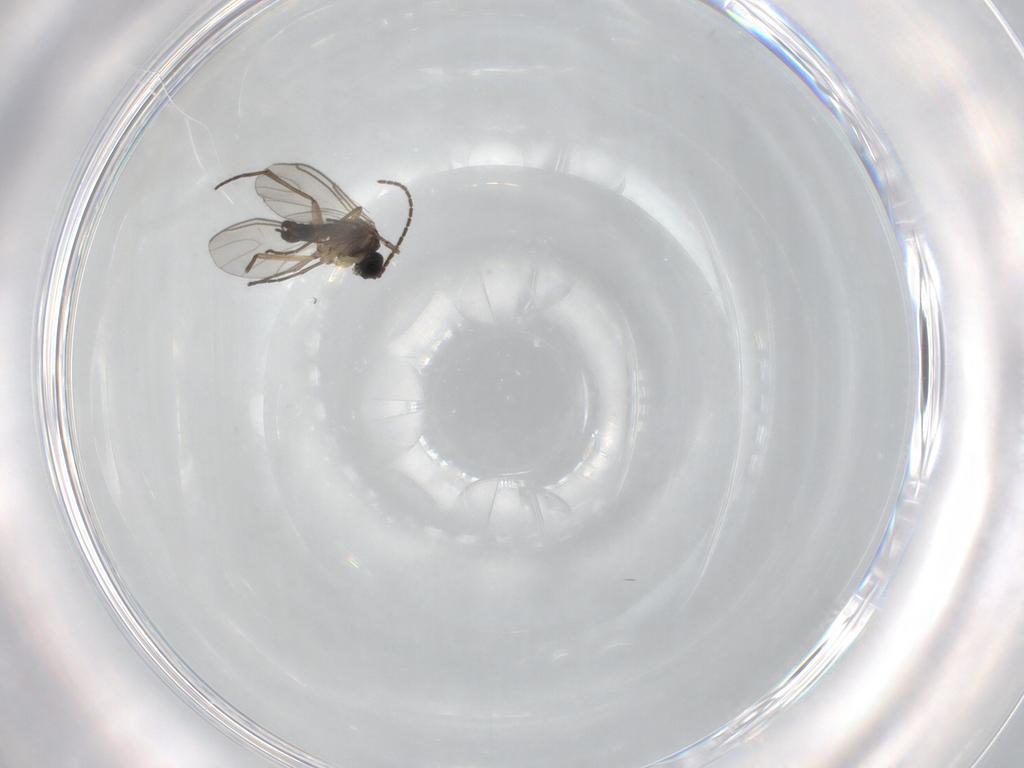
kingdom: Animalia
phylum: Arthropoda
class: Insecta
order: Diptera
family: Sciaridae
